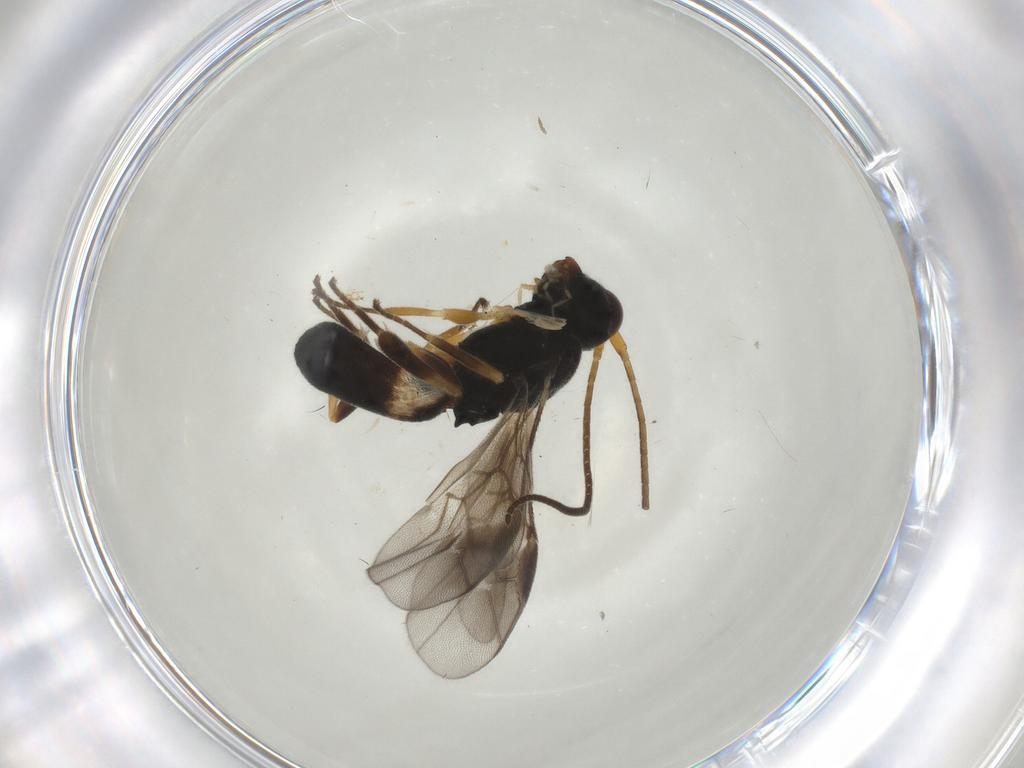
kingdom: Animalia
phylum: Arthropoda
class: Insecta
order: Hymenoptera
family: Braconidae
